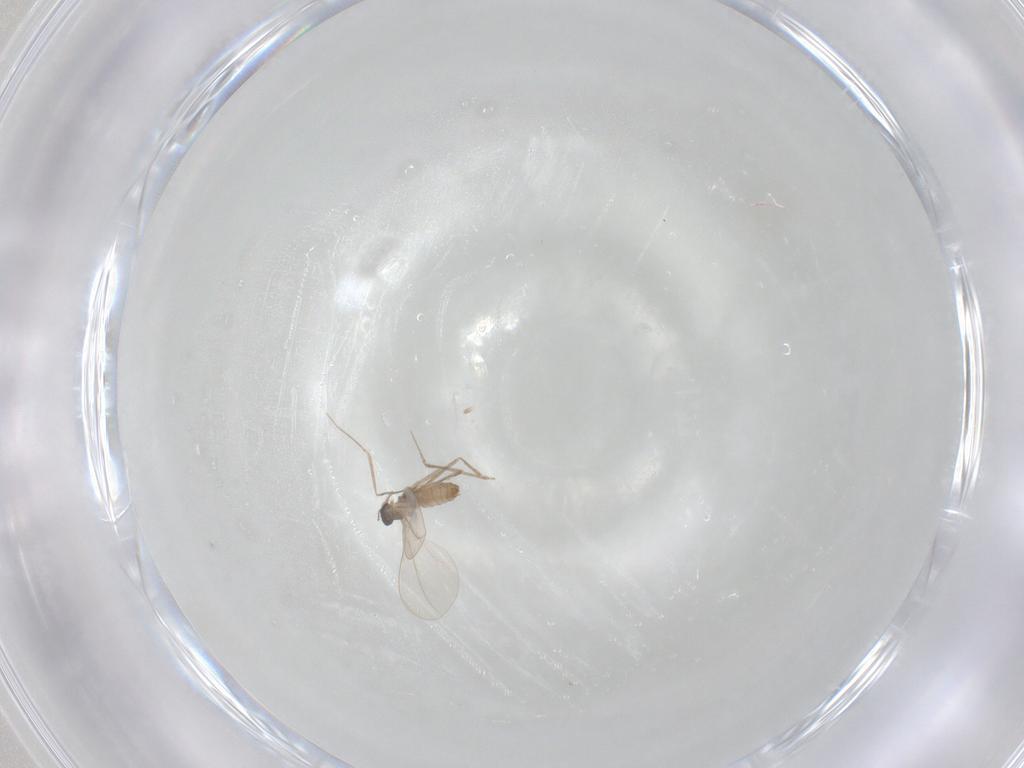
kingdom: Animalia
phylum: Arthropoda
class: Insecta
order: Diptera
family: Cecidomyiidae
